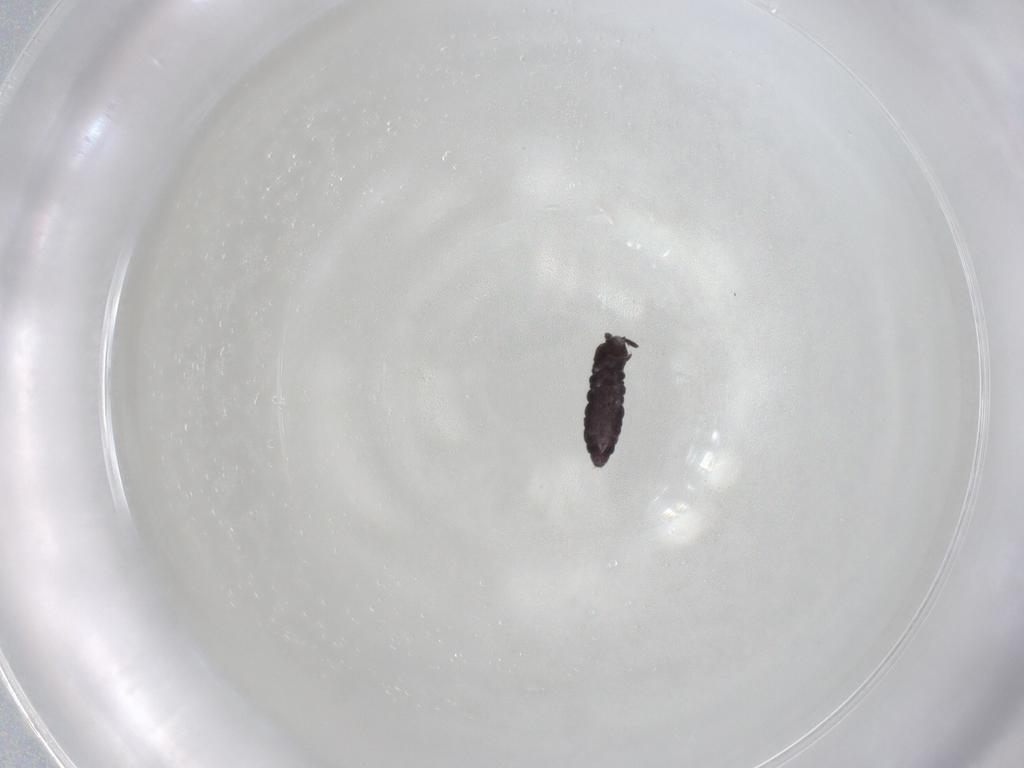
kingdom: Animalia
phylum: Arthropoda
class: Collembola
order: Poduromorpha
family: Hypogastruridae
